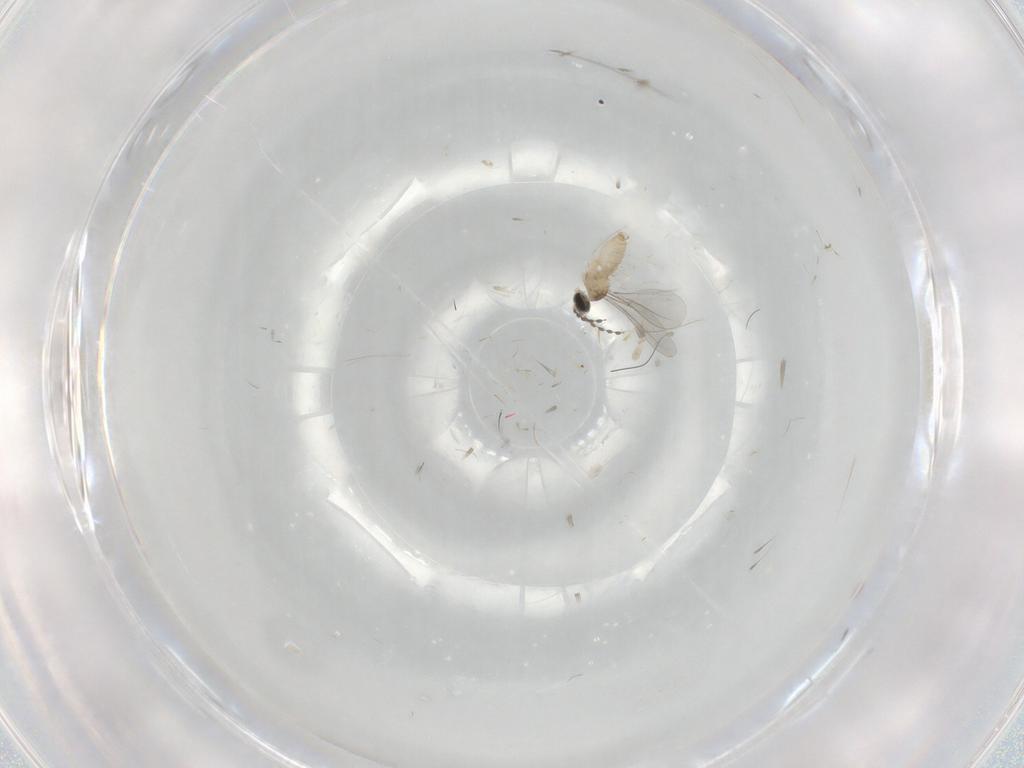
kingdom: Animalia
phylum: Arthropoda
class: Insecta
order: Diptera
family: Cecidomyiidae
